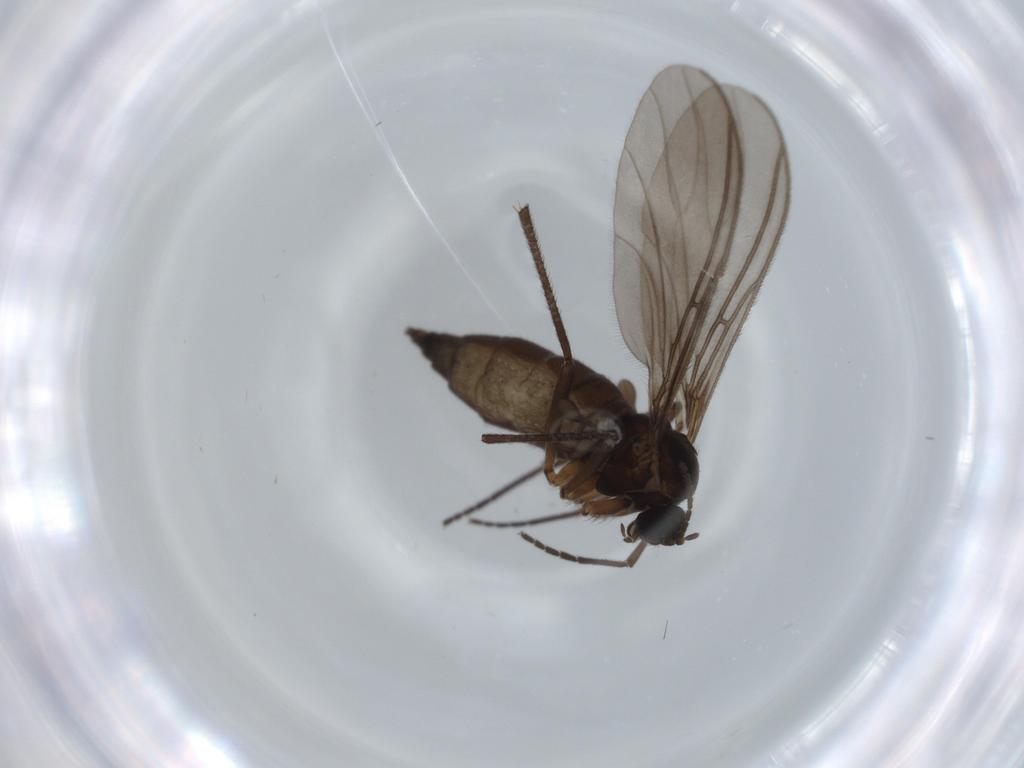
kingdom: Animalia
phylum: Arthropoda
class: Insecta
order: Diptera
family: Sciaridae
